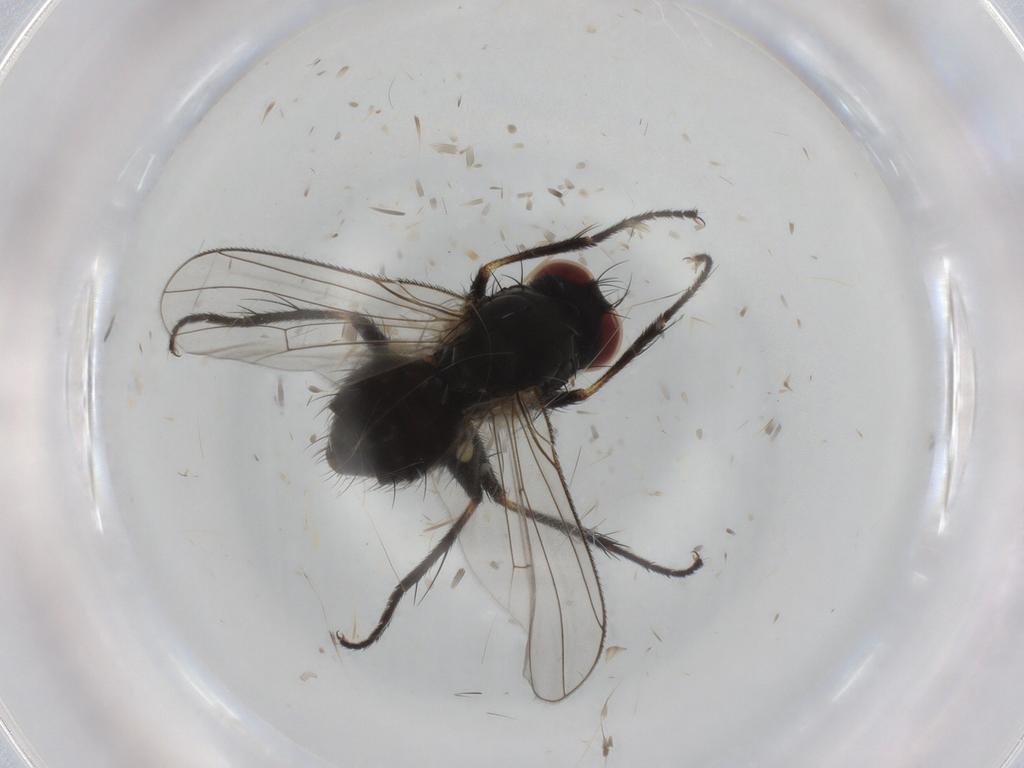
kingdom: Animalia
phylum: Arthropoda
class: Insecta
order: Diptera
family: Muscidae
